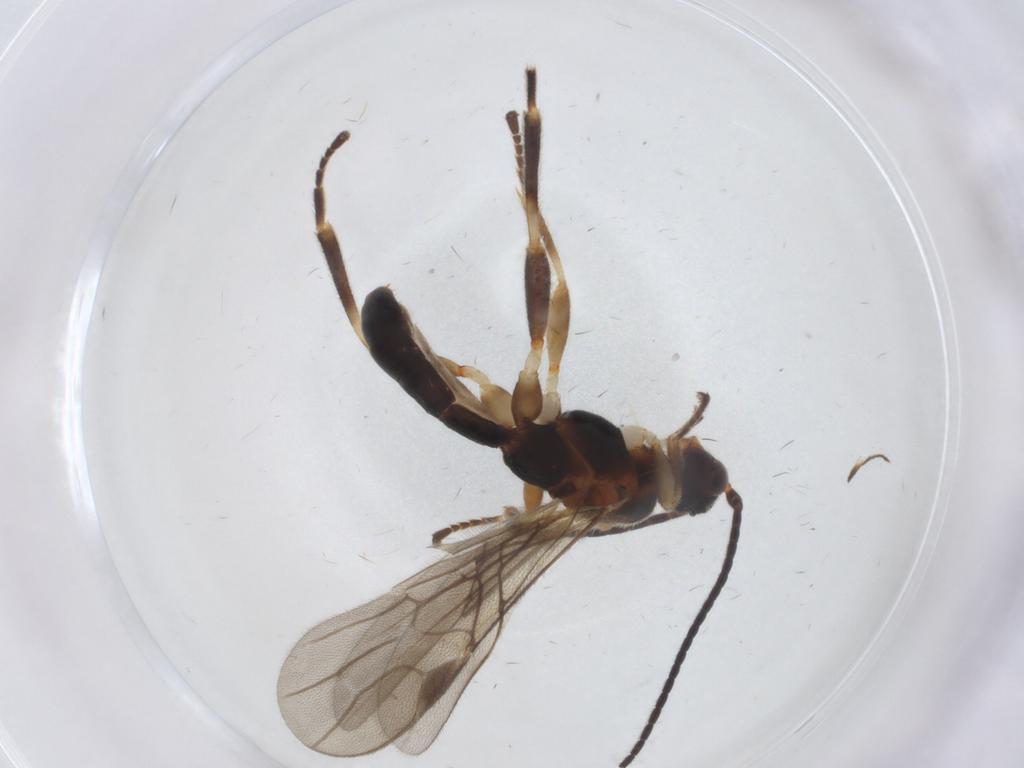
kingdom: Animalia
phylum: Arthropoda
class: Insecta
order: Hymenoptera
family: Braconidae
